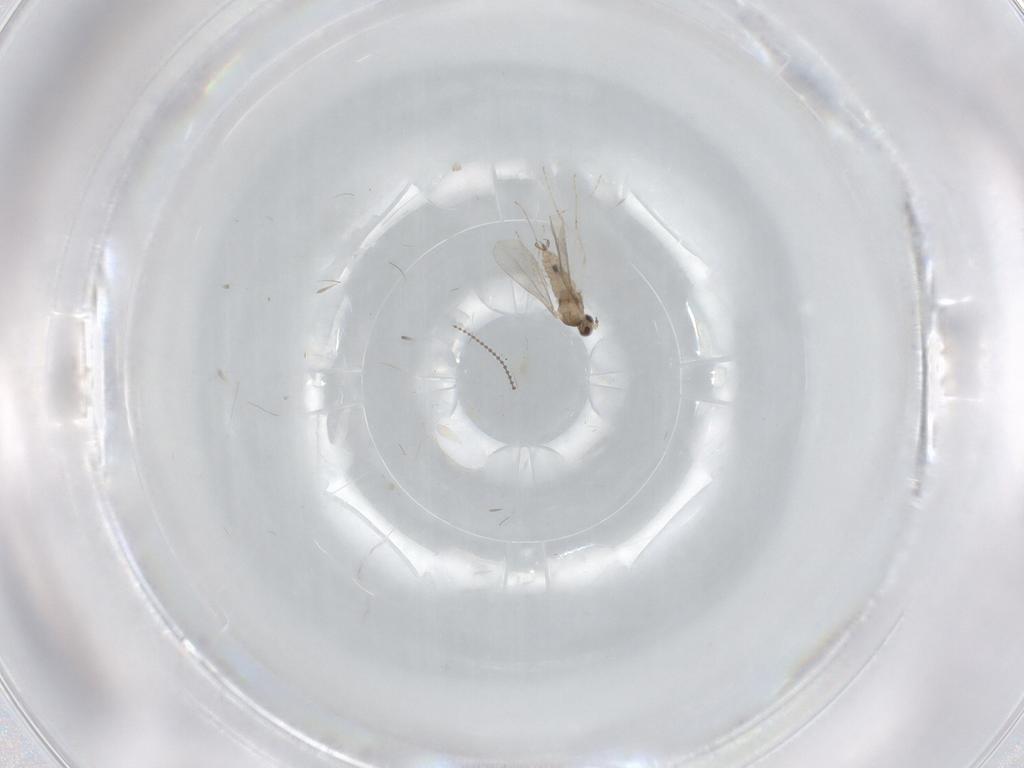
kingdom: Animalia
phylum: Arthropoda
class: Insecta
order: Diptera
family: Cecidomyiidae
